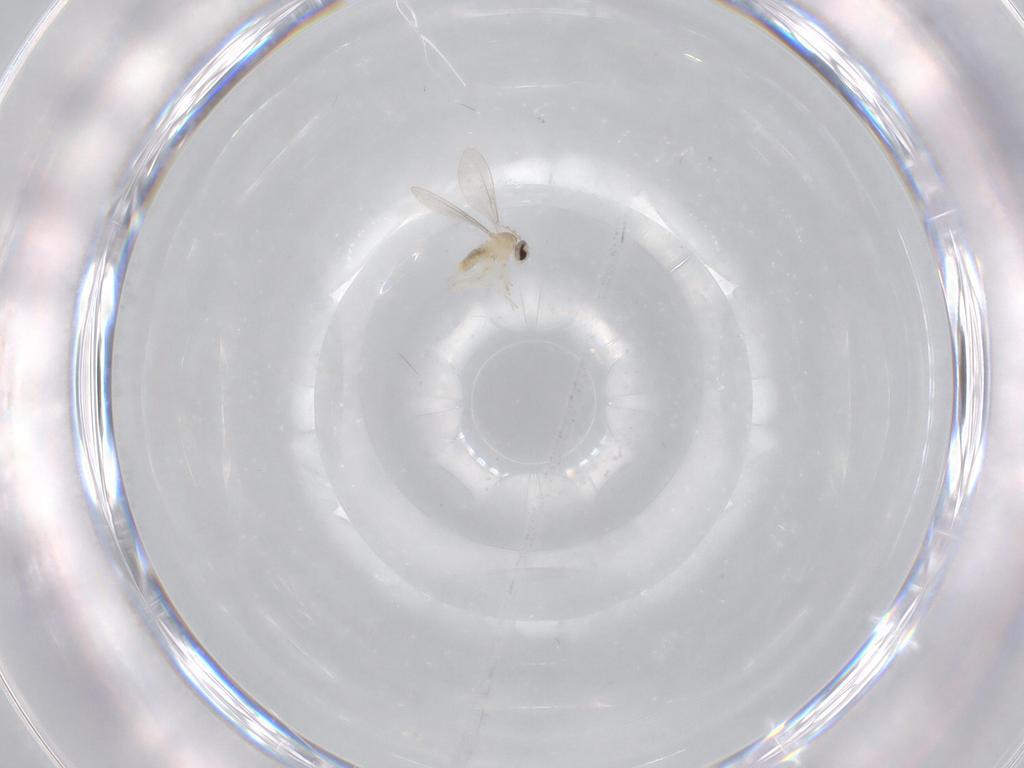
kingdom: Animalia
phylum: Arthropoda
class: Insecta
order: Diptera
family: Cecidomyiidae
